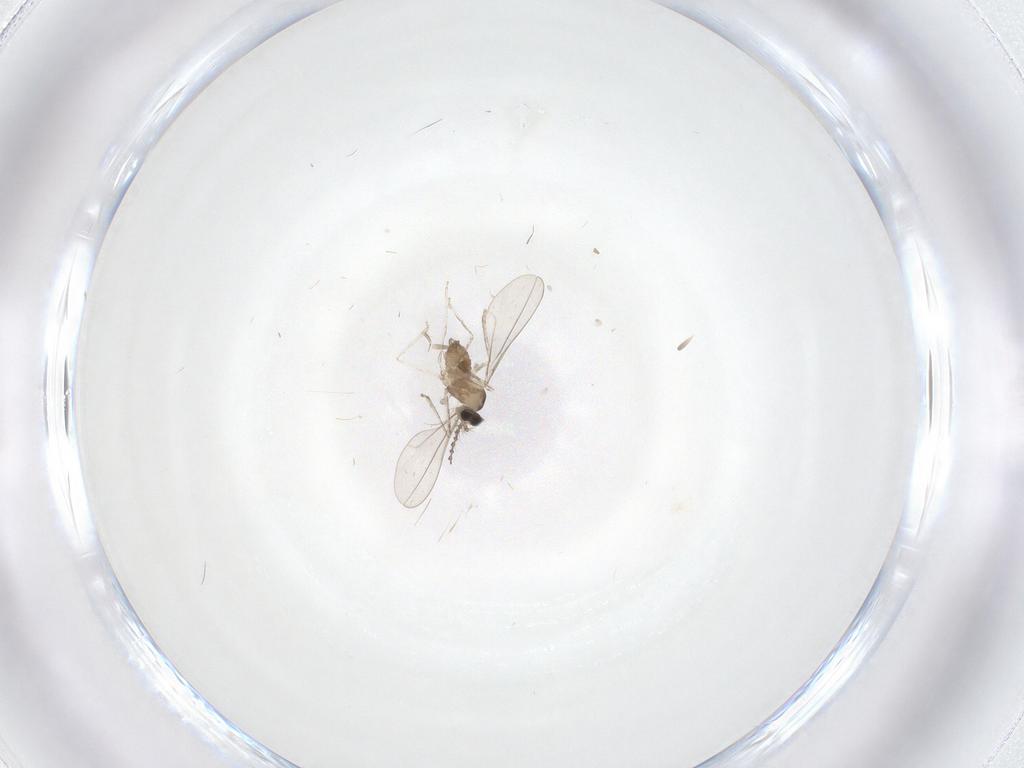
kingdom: Animalia
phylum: Arthropoda
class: Insecta
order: Diptera
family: Psychodidae
